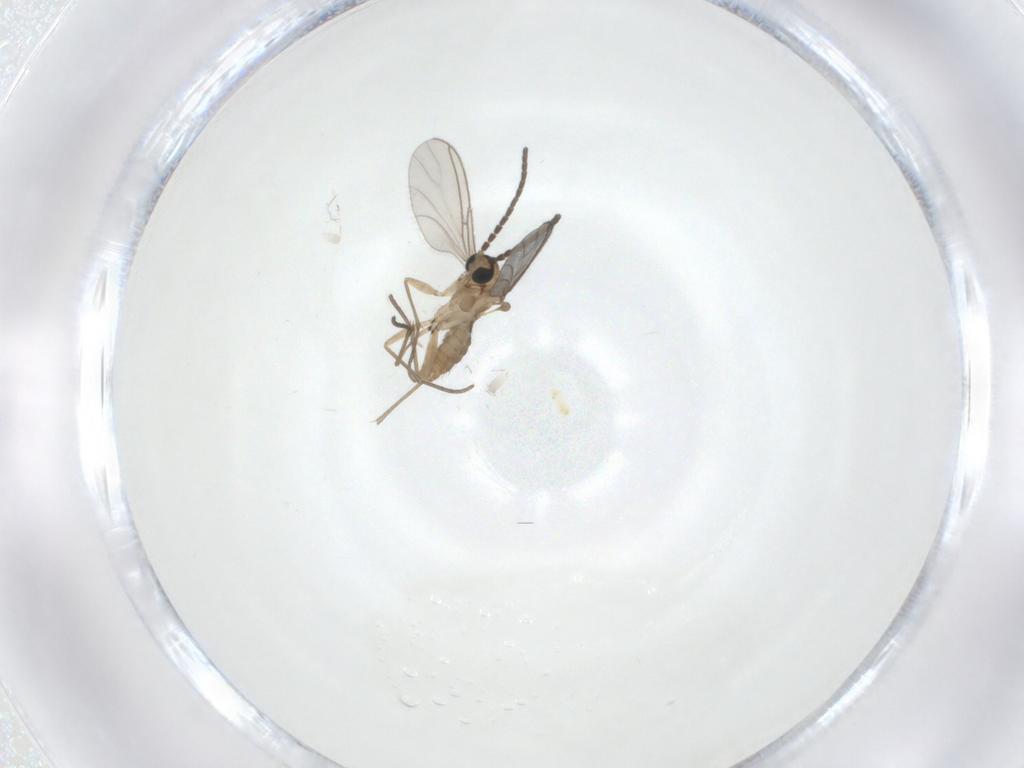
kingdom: Animalia
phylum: Arthropoda
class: Insecta
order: Diptera
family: Sciaridae
